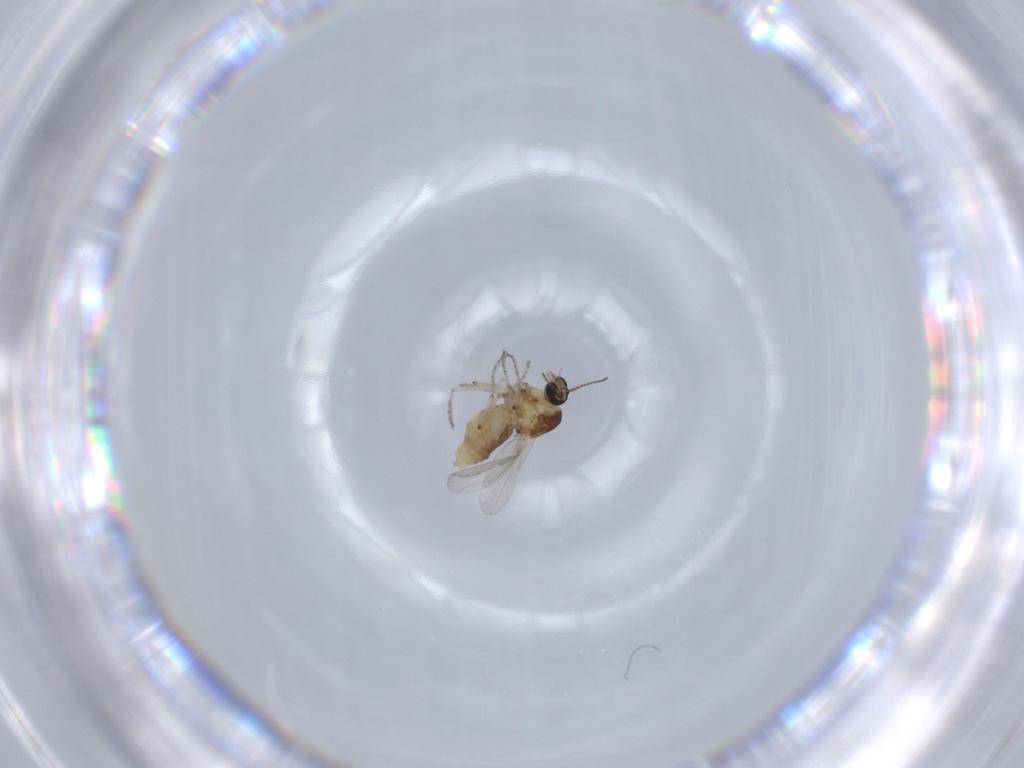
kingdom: Animalia
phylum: Arthropoda
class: Insecta
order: Diptera
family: Ceratopogonidae
